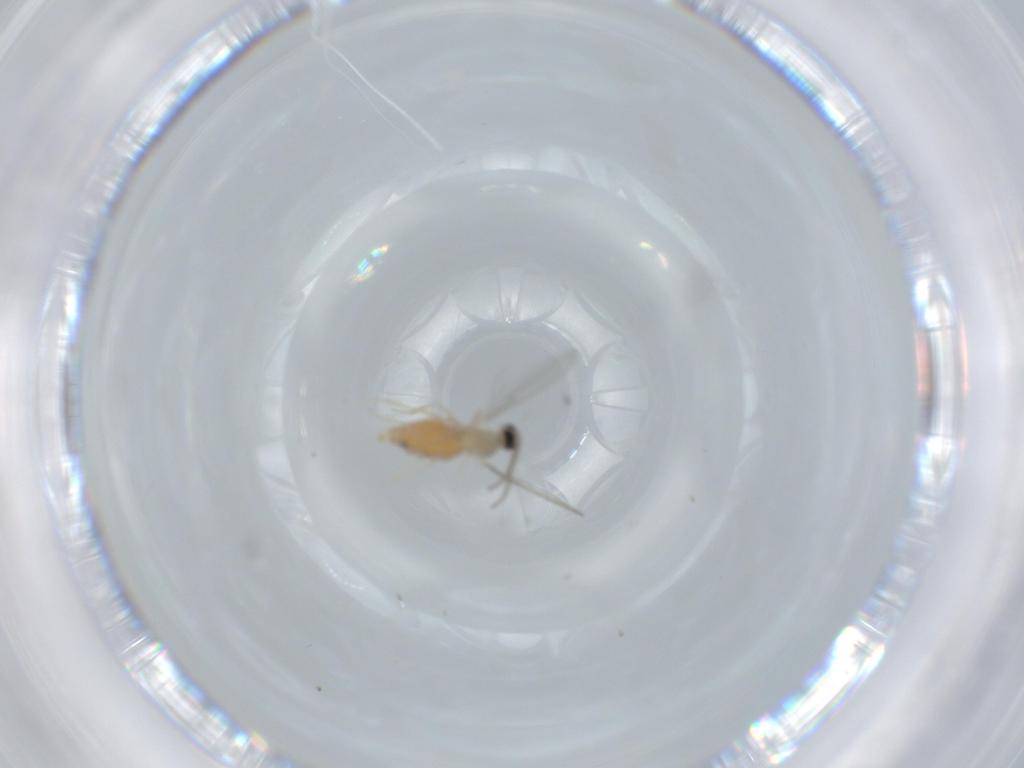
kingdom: Animalia
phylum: Arthropoda
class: Insecta
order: Diptera
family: Cecidomyiidae
